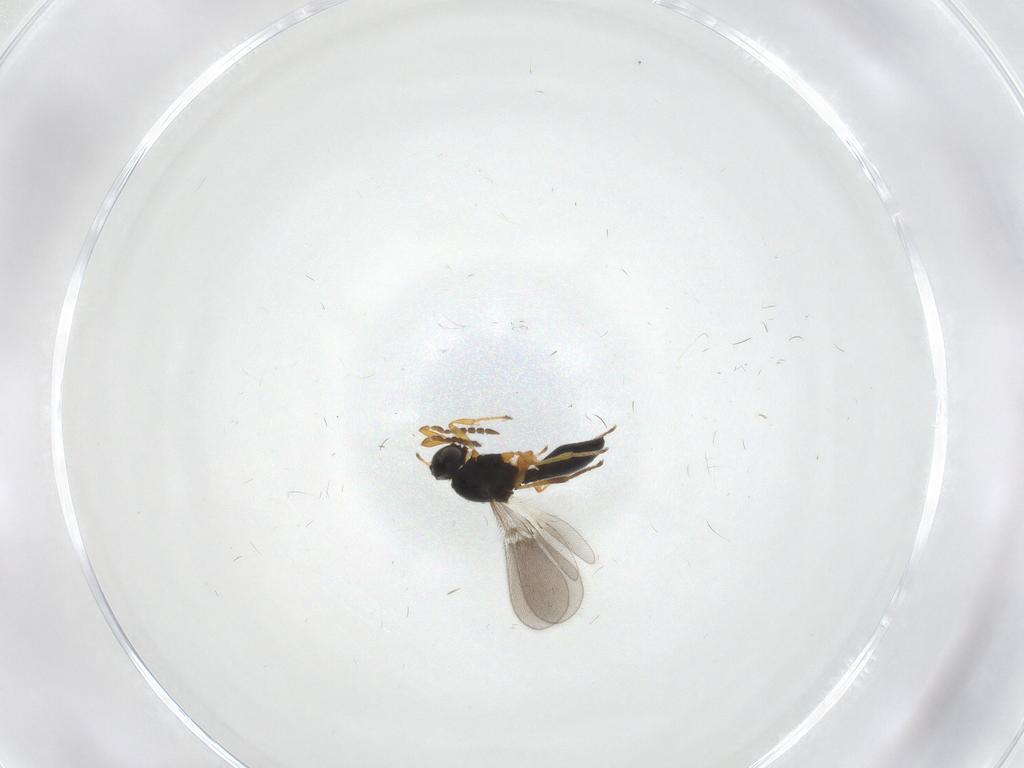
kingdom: Animalia
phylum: Arthropoda
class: Insecta
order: Hymenoptera
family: Platygastridae
